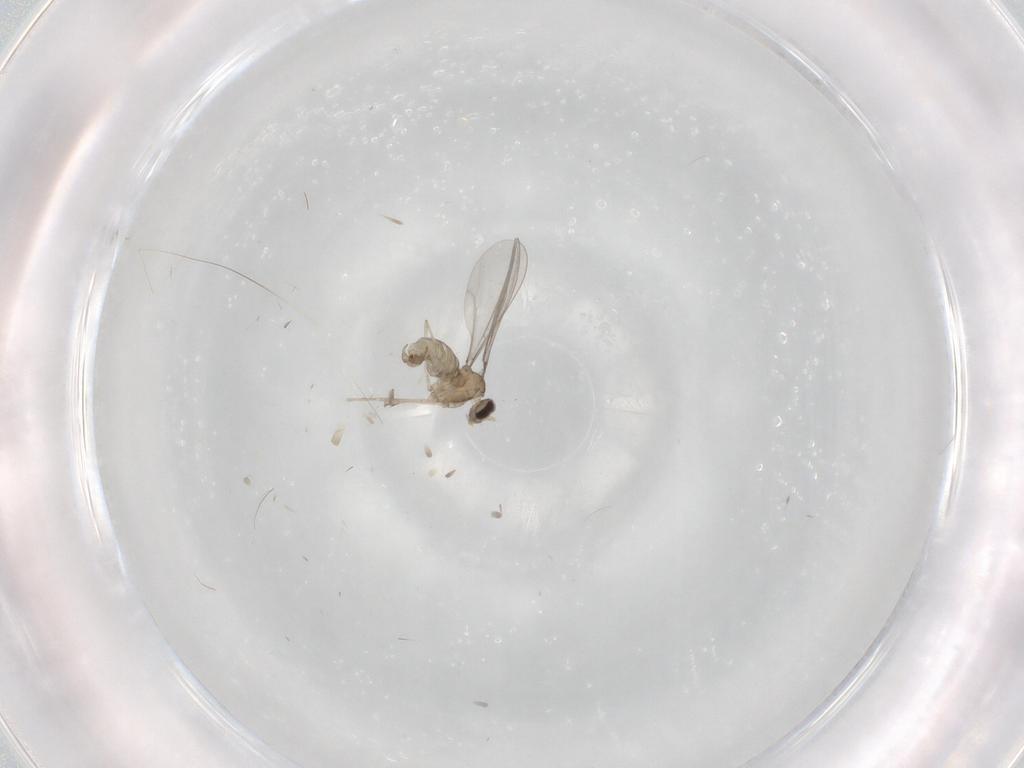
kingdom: Animalia
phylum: Arthropoda
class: Insecta
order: Diptera
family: Cecidomyiidae
